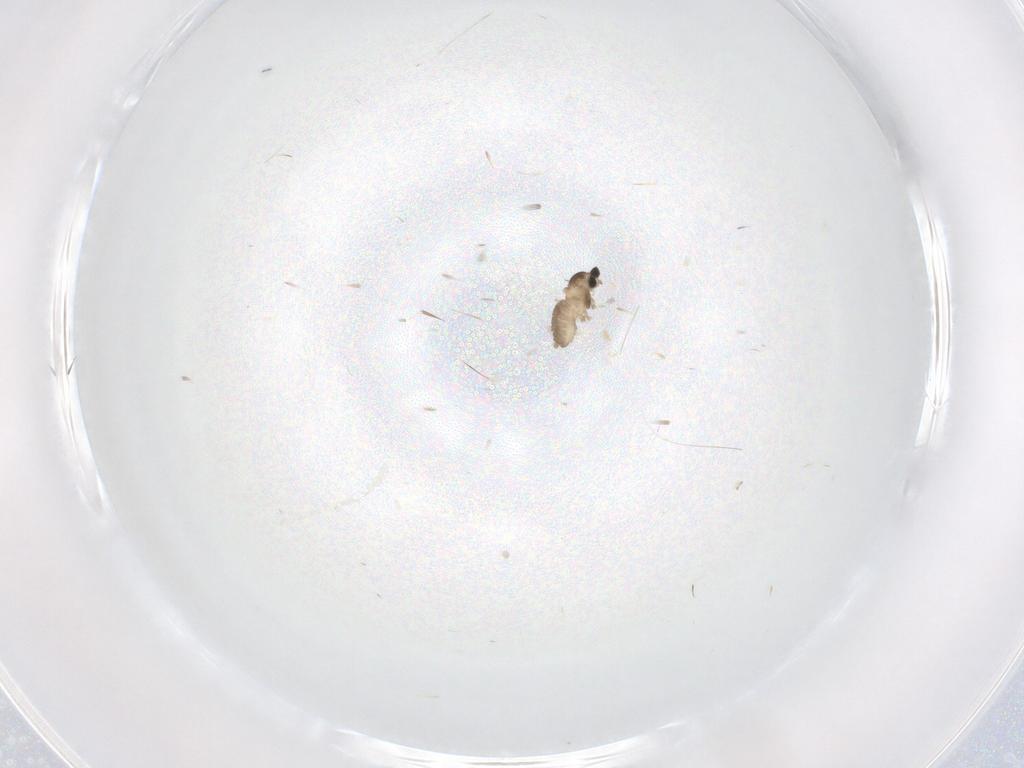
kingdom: Animalia
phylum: Arthropoda
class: Insecta
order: Diptera
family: Cecidomyiidae
